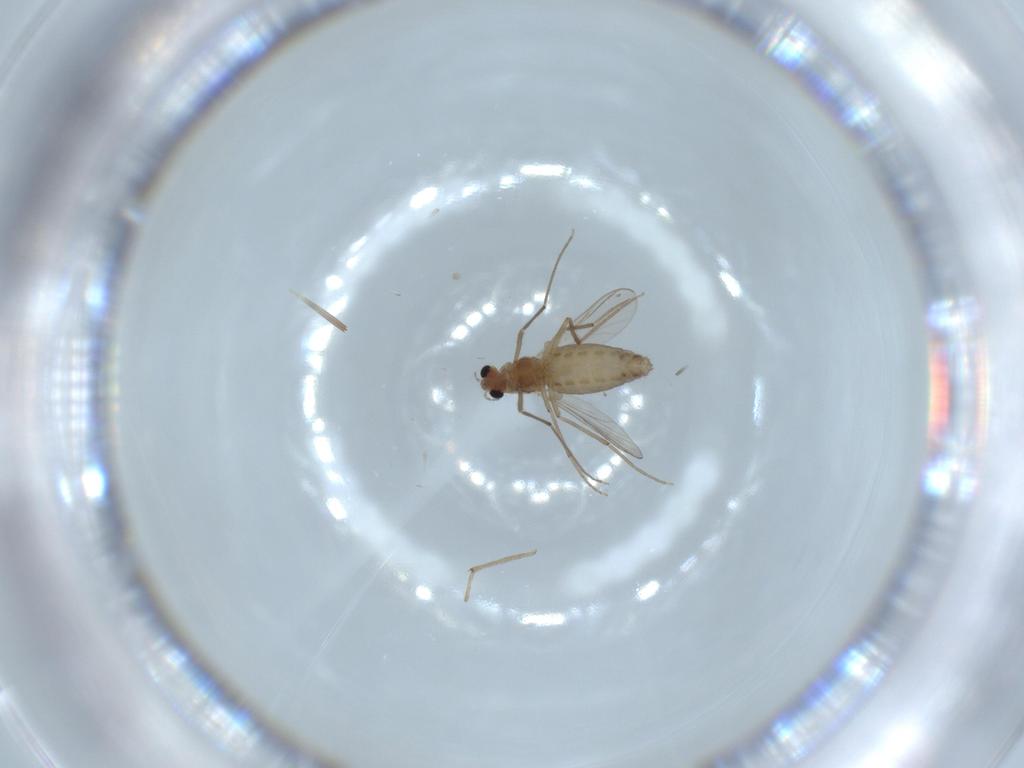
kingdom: Animalia
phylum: Arthropoda
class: Insecta
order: Diptera
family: Chironomidae
